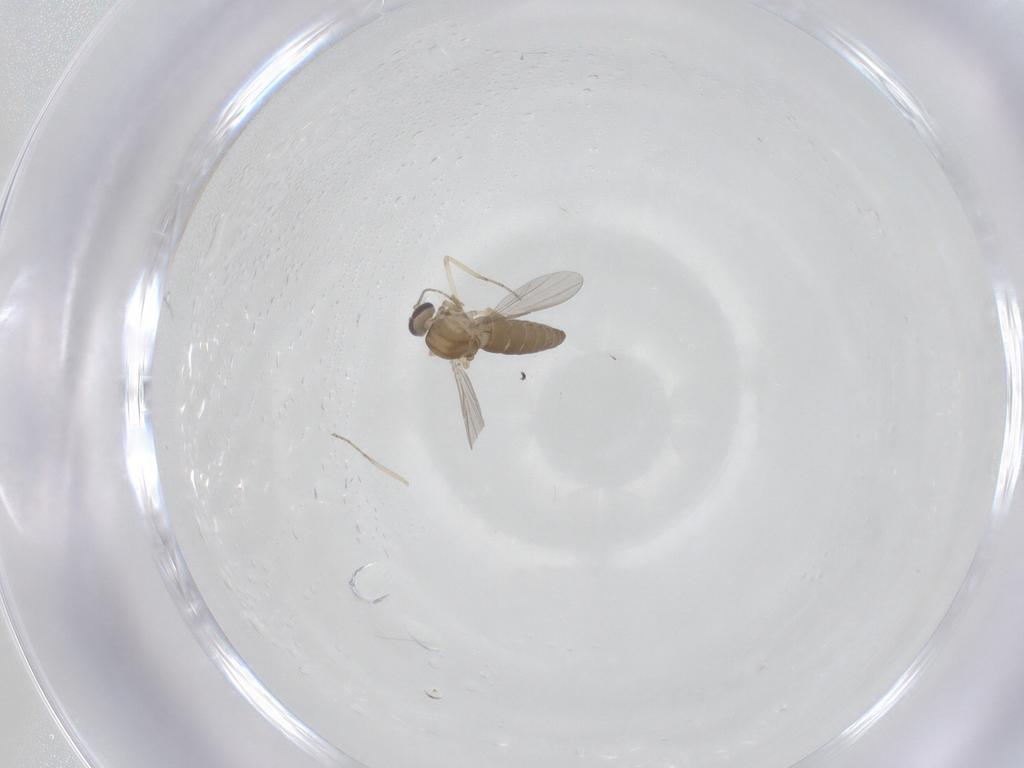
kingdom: Animalia
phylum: Arthropoda
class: Insecta
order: Diptera
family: Ceratopogonidae
